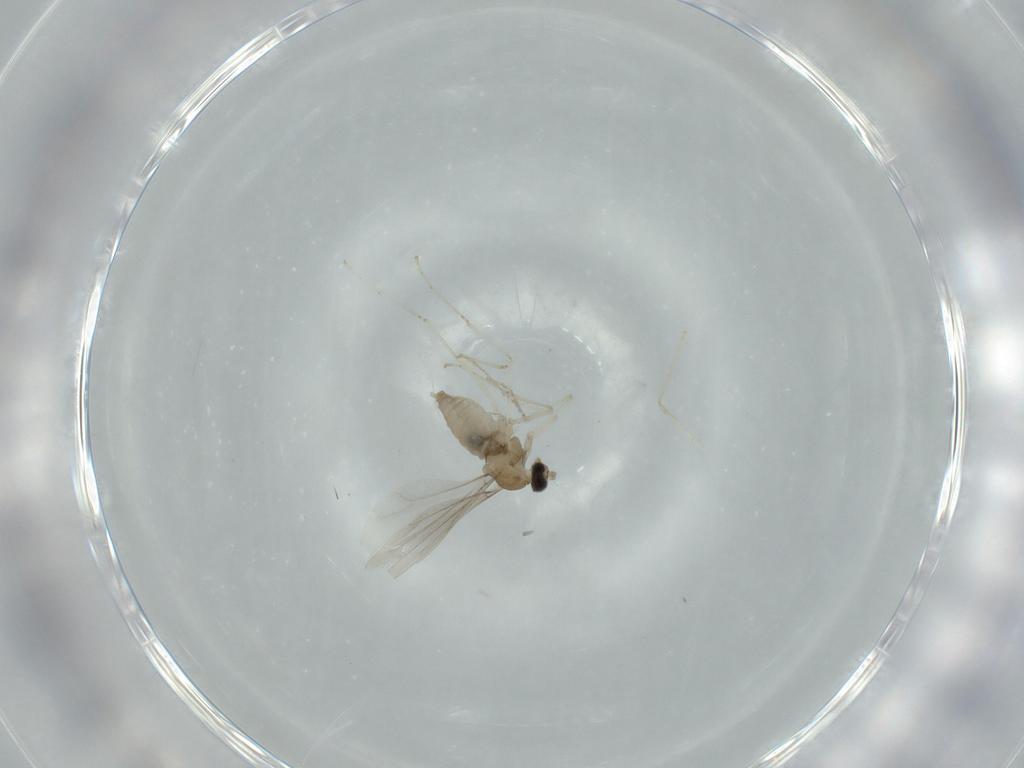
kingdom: Animalia
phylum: Arthropoda
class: Insecta
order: Diptera
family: Cecidomyiidae
